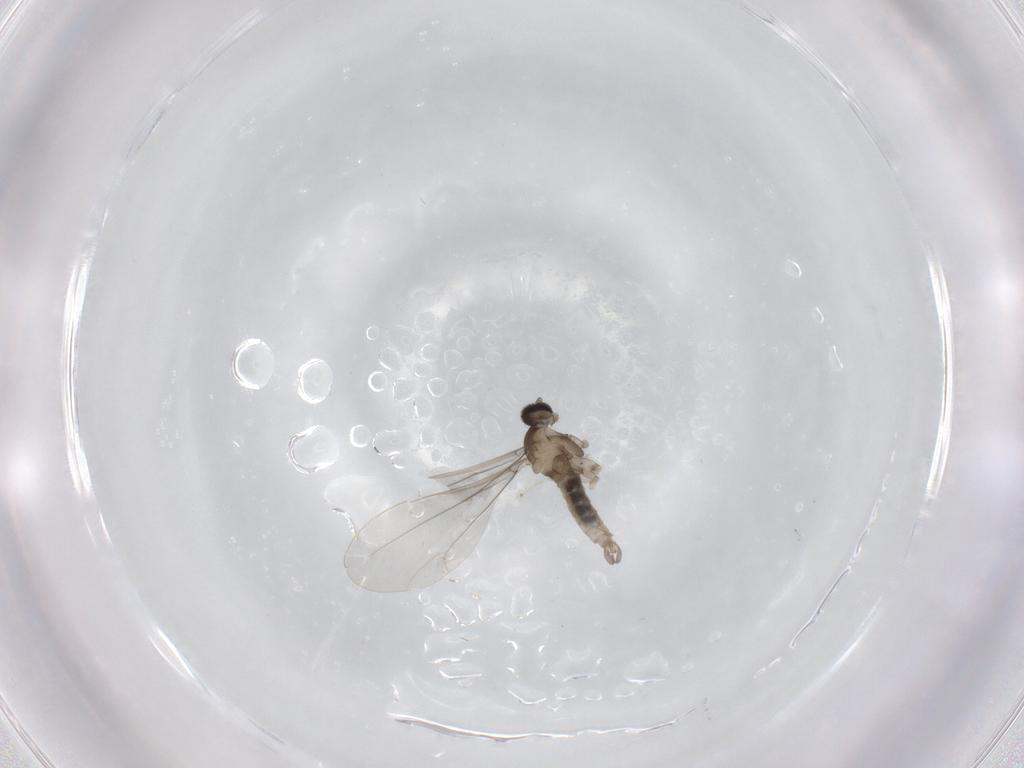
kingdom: Animalia
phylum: Arthropoda
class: Insecta
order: Diptera
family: Cecidomyiidae
